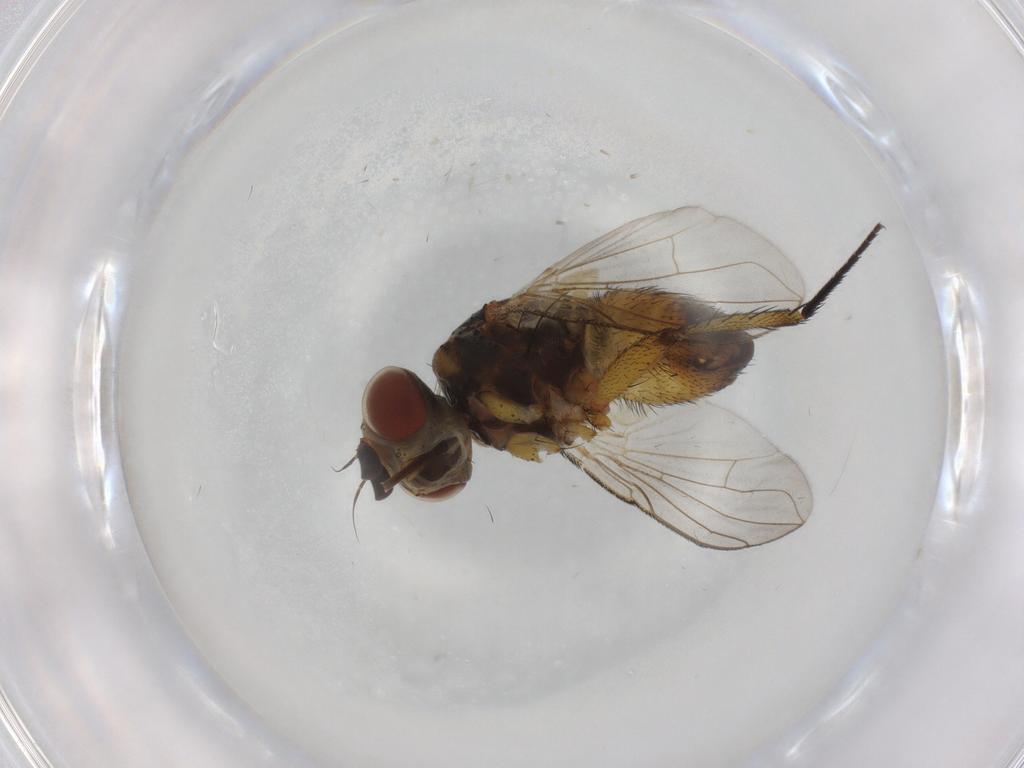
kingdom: Animalia
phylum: Arthropoda
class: Insecta
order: Diptera
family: Tachinidae
